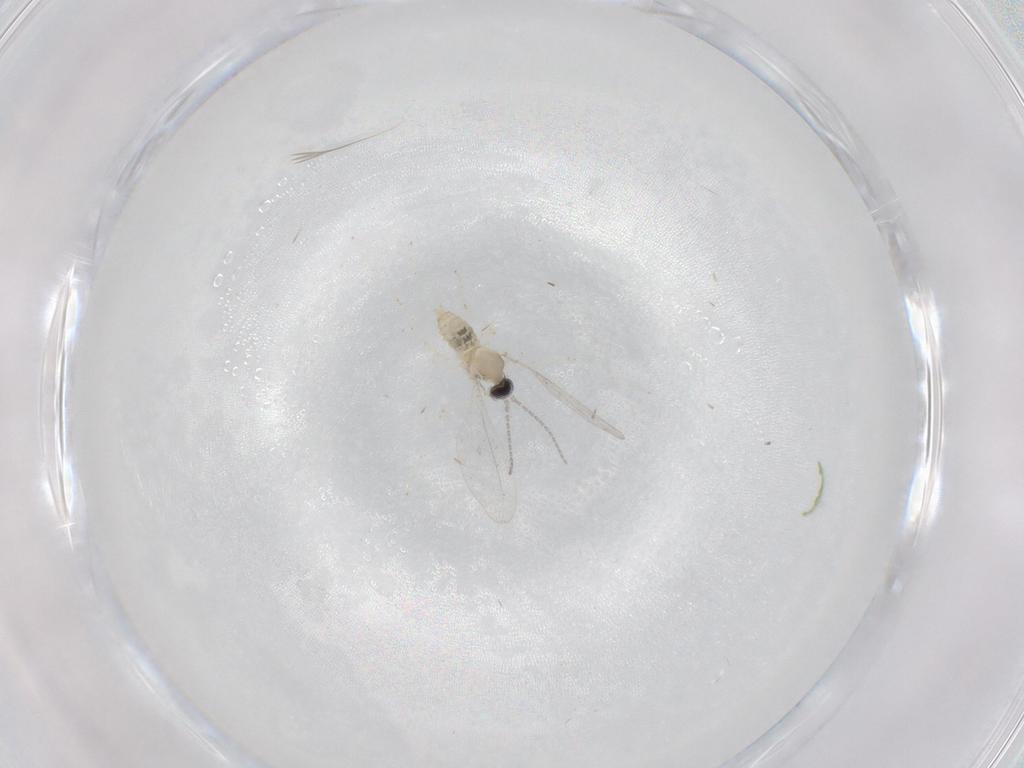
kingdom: Animalia
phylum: Arthropoda
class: Insecta
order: Diptera
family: Cecidomyiidae
